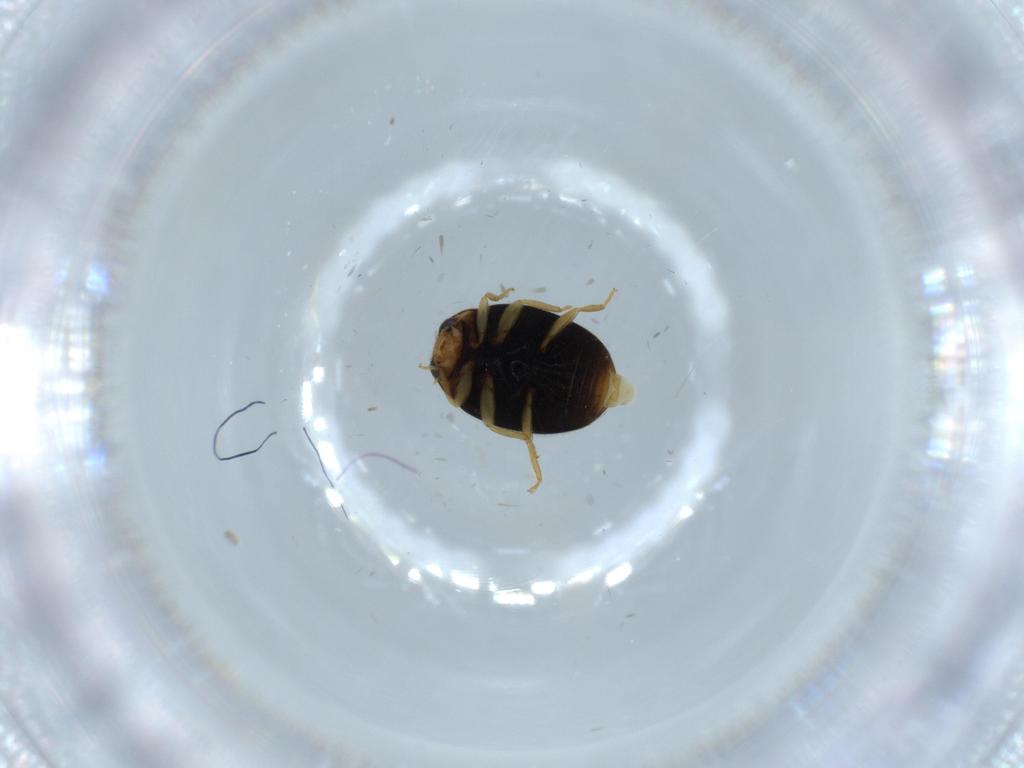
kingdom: Animalia
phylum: Arthropoda
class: Insecta
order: Coleoptera
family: Coccinellidae
